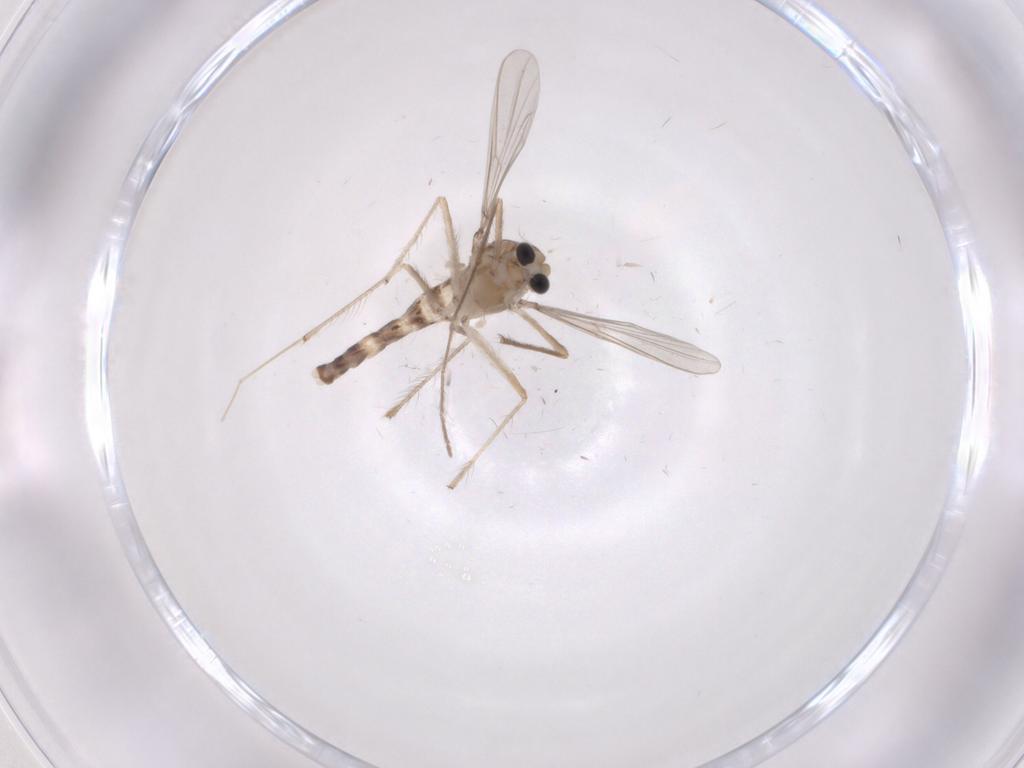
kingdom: Animalia
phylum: Arthropoda
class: Insecta
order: Diptera
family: Chironomidae
